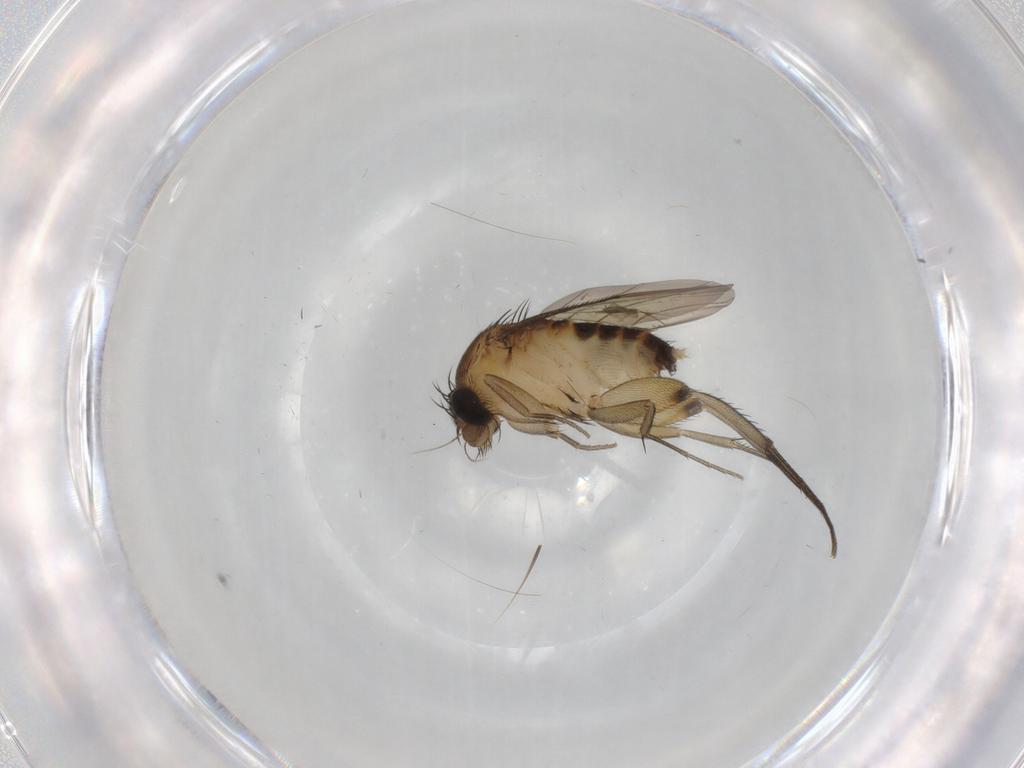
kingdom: Animalia
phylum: Arthropoda
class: Insecta
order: Diptera
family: Phoridae
